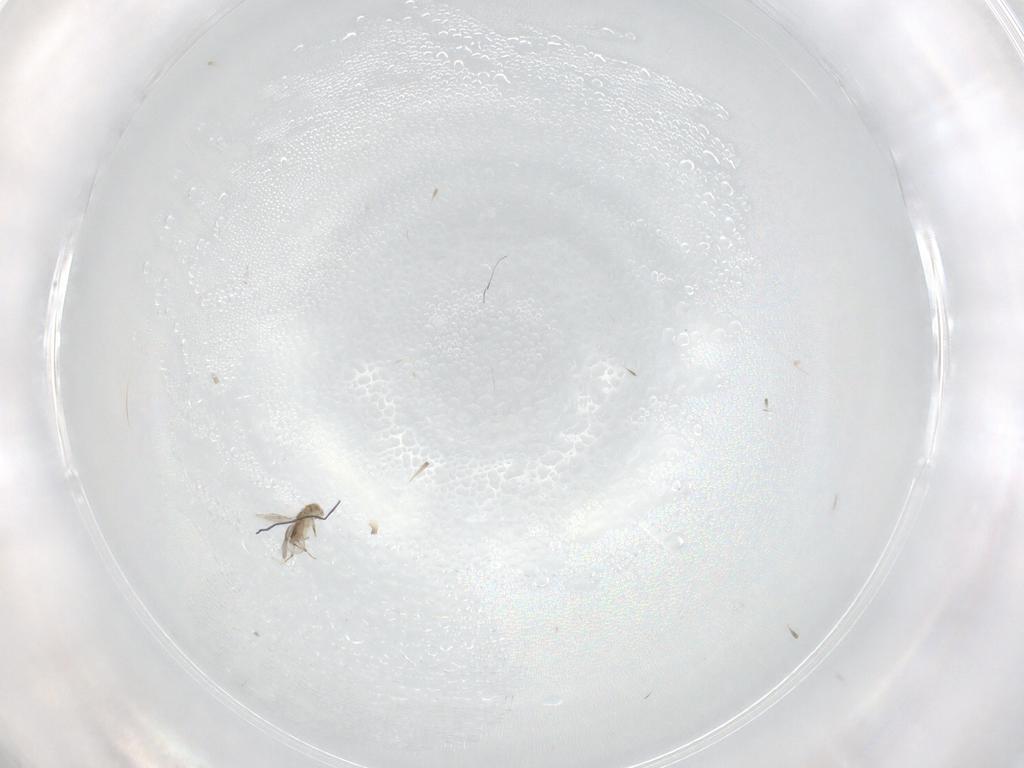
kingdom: Animalia
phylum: Arthropoda
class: Insecta
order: Hymenoptera
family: Aphelinidae
